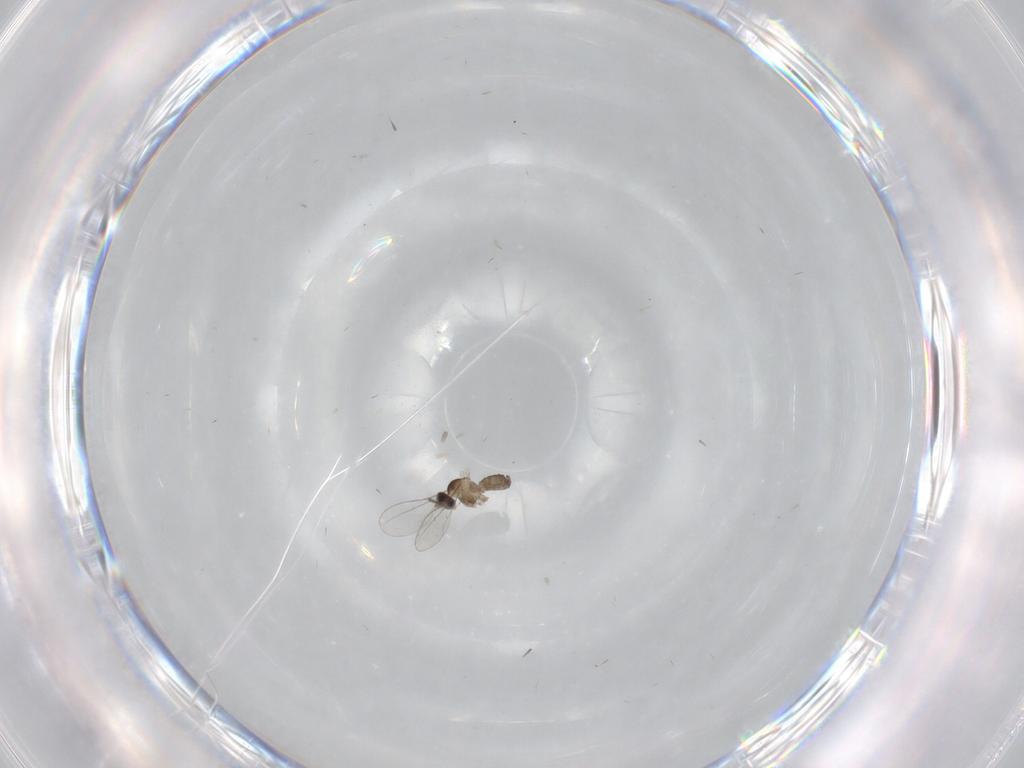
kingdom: Animalia
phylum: Arthropoda
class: Insecta
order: Diptera
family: Cecidomyiidae
